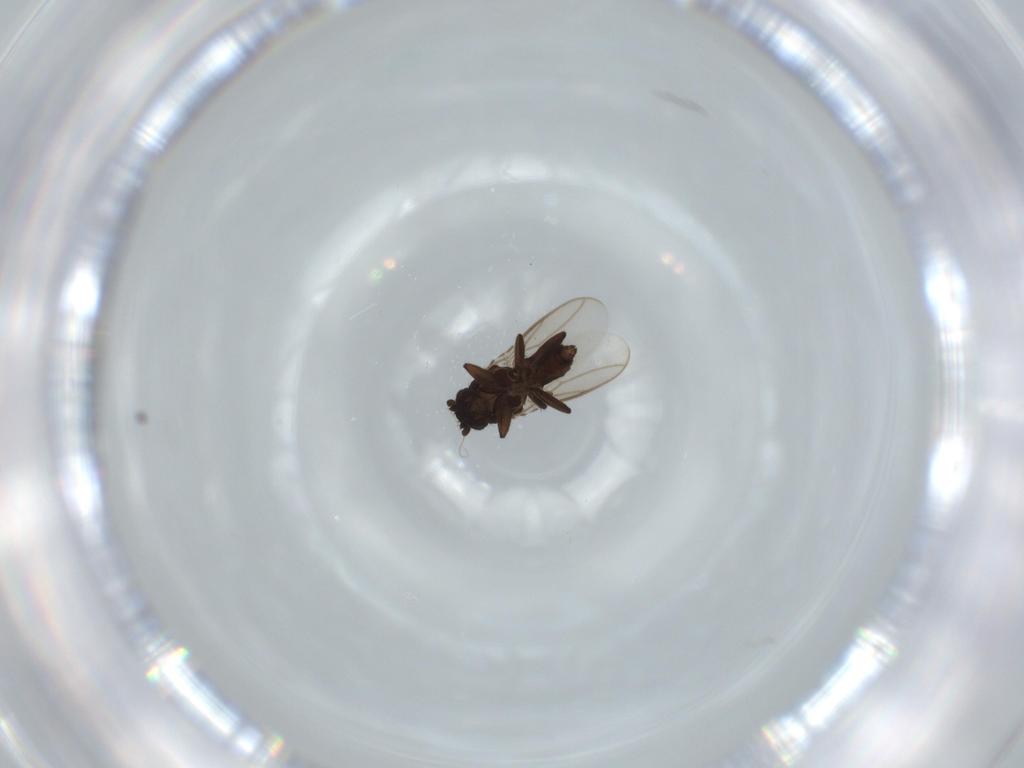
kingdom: Animalia
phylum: Arthropoda
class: Insecta
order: Diptera
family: Sphaeroceridae
